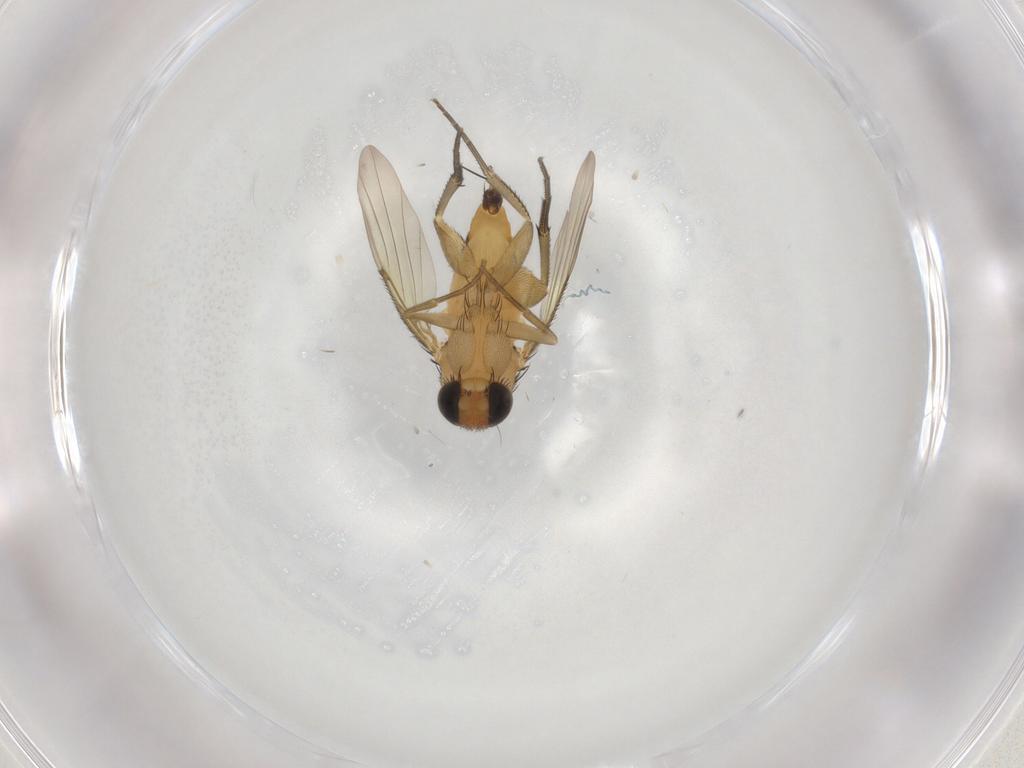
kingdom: Animalia
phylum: Arthropoda
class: Insecta
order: Diptera
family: Phoridae
